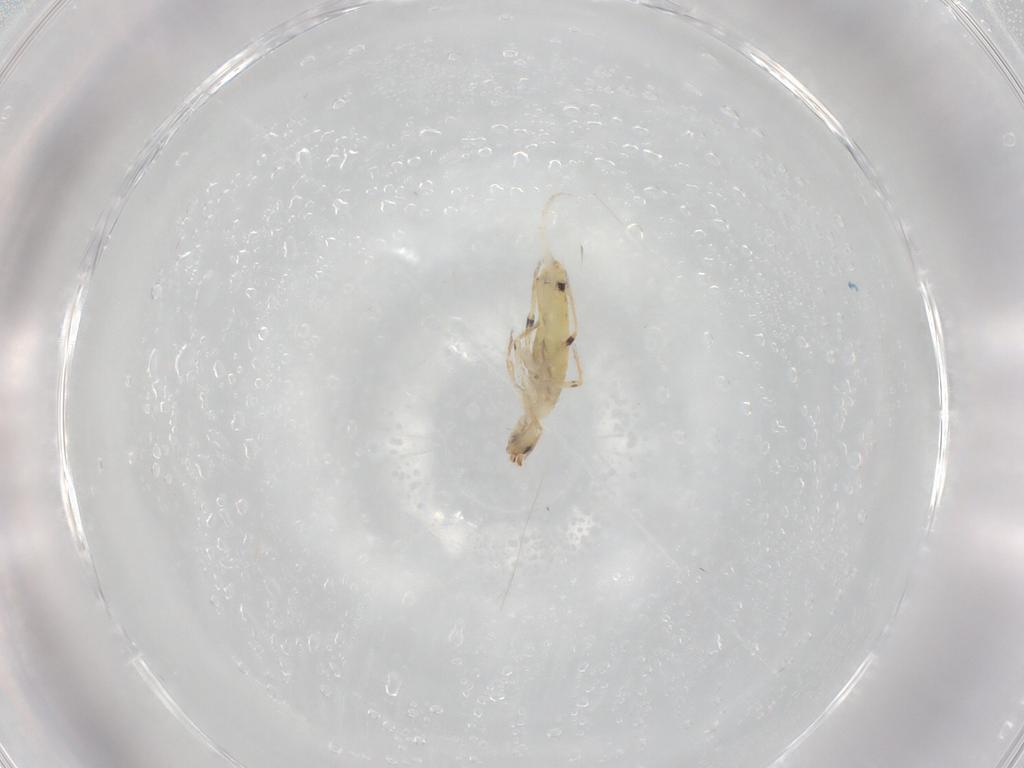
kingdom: Animalia
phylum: Arthropoda
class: Collembola
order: Entomobryomorpha
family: Entomobryidae
